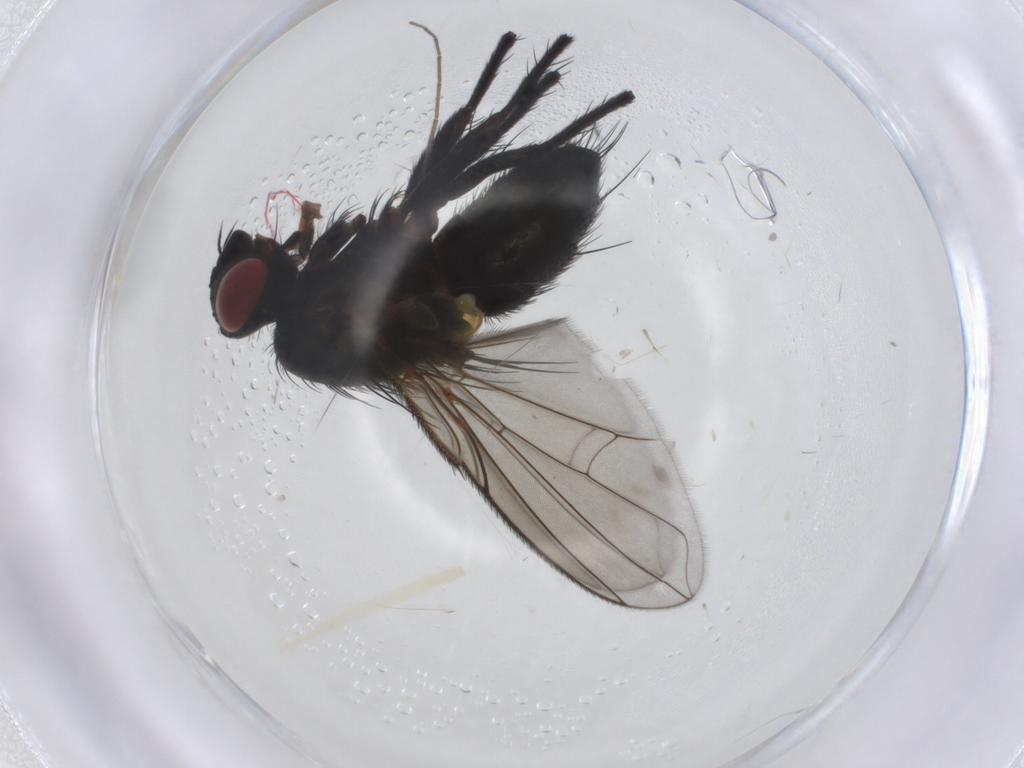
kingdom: Animalia
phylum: Arthropoda
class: Insecta
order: Diptera
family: Tachinidae
